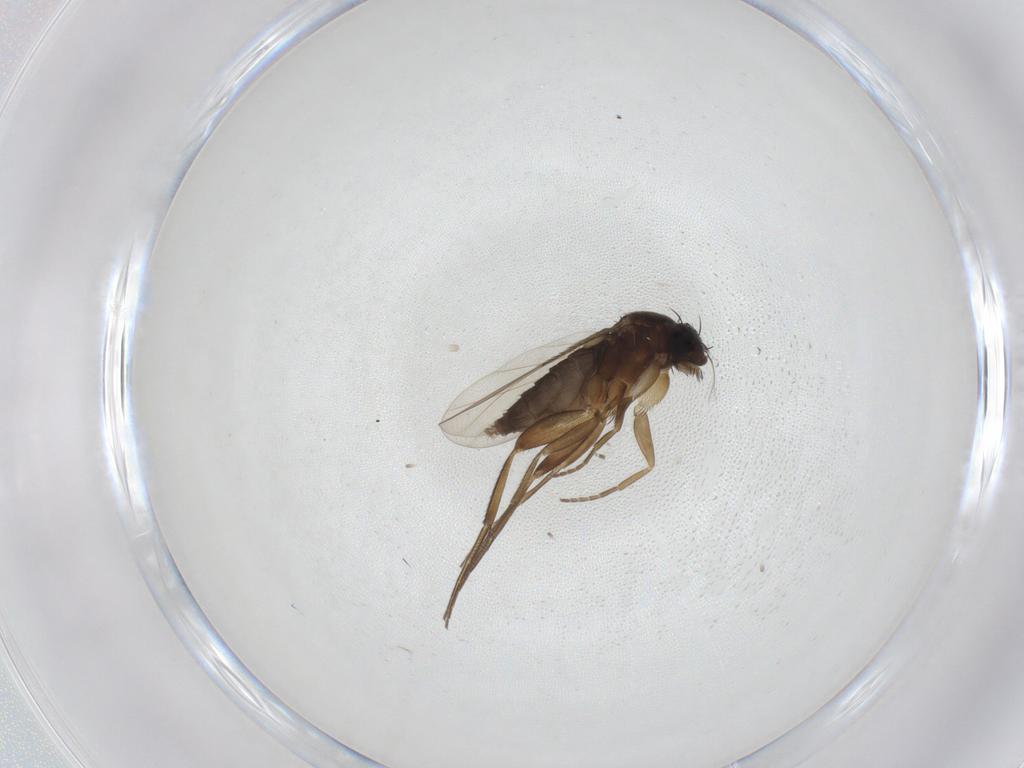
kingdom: Animalia
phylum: Arthropoda
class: Insecta
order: Diptera
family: Phoridae
